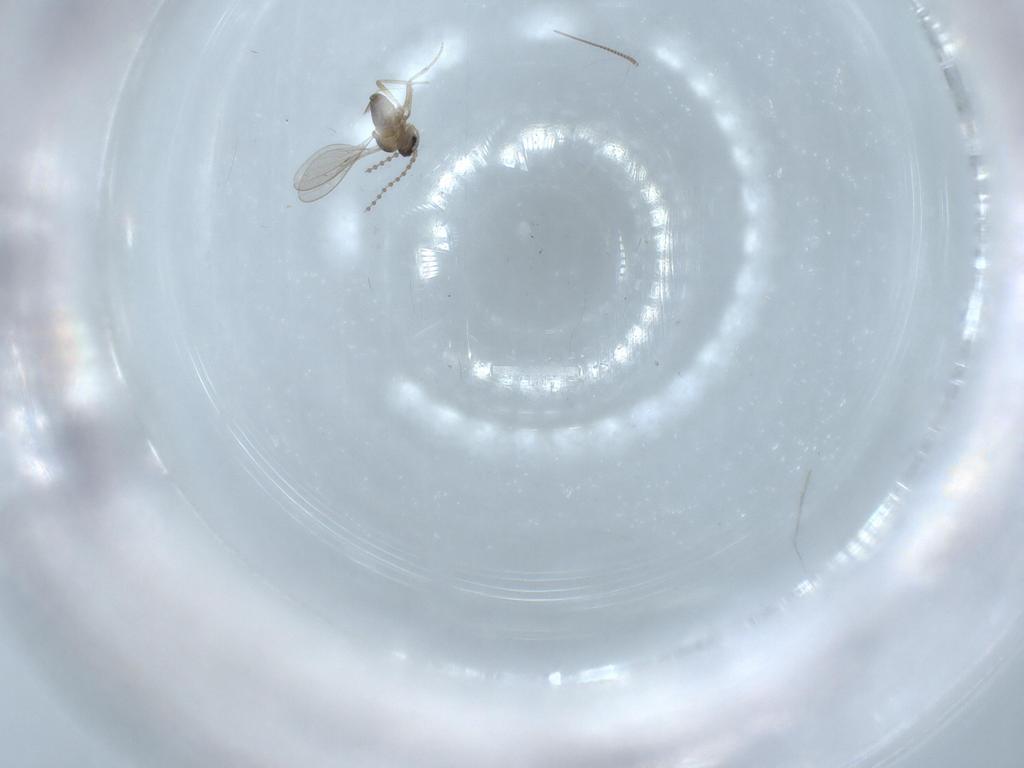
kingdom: Animalia
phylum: Arthropoda
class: Insecta
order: Diptera
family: Cecidomyiidae
